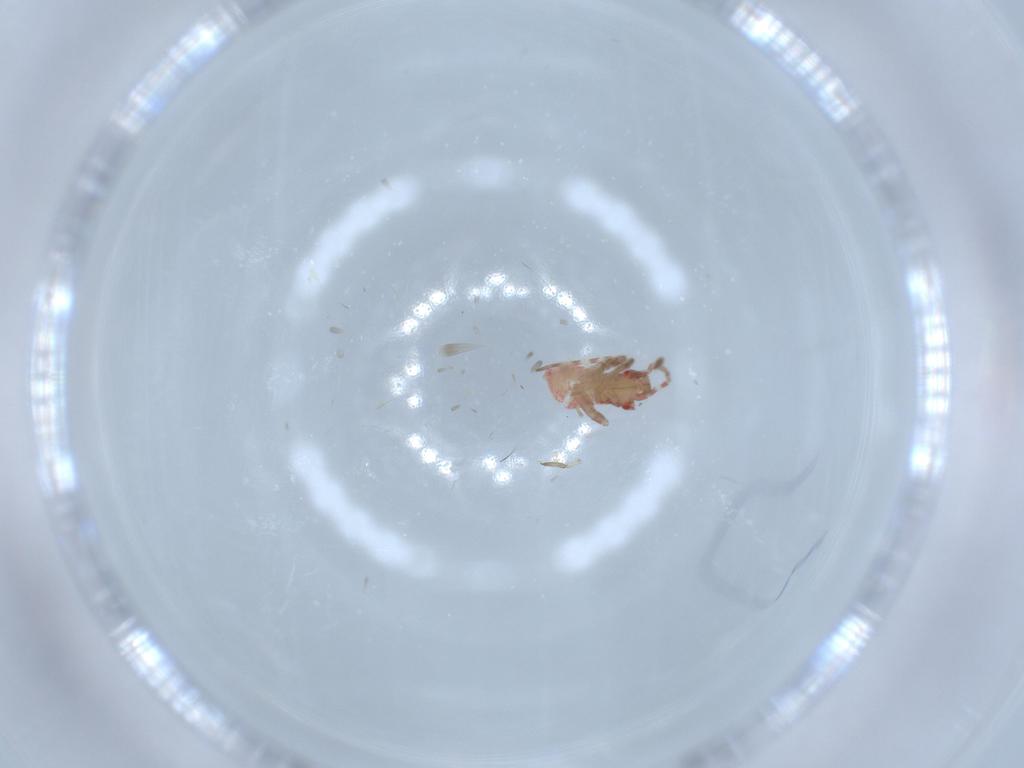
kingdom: Animalia
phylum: Arthropoda
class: Insecta
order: Hemiptera
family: Miridae
